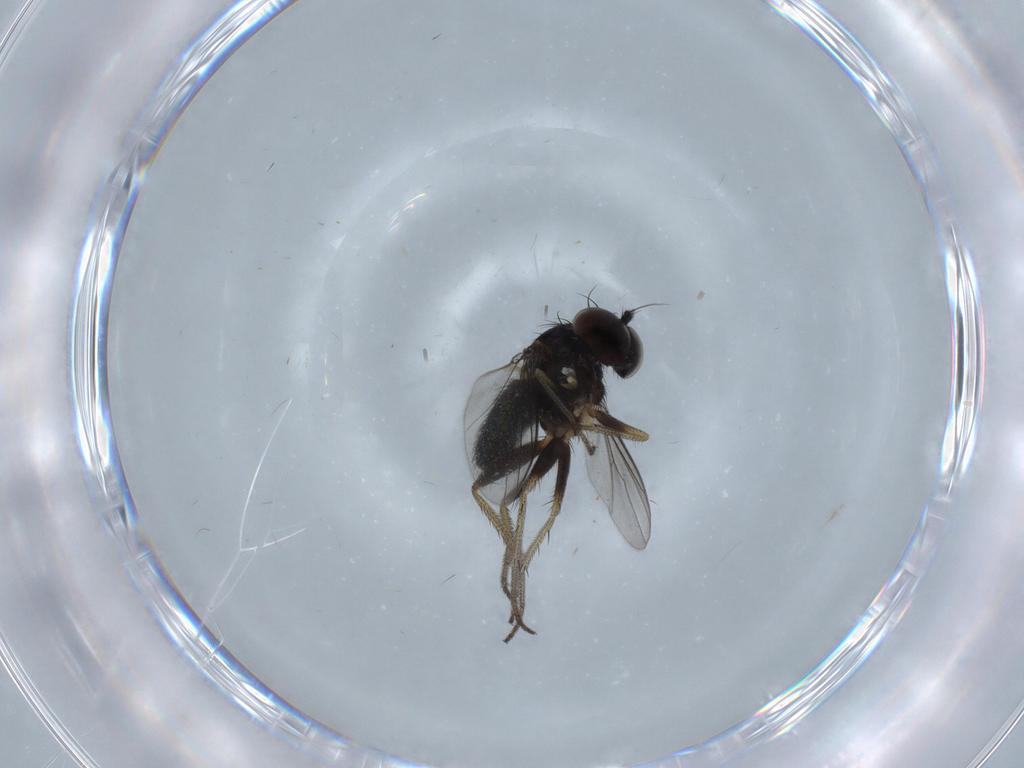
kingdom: Animalia
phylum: Arthropoda
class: Insecta
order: Diptera
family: Dolichopodidae
